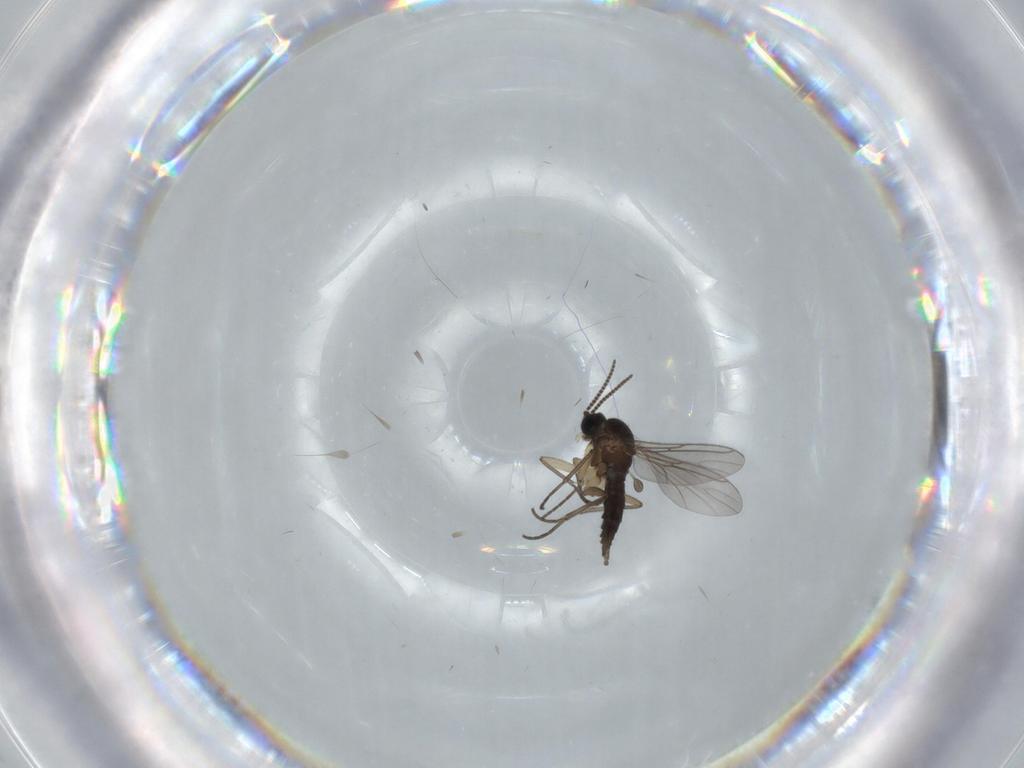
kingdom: Animalia
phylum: Arthropoda
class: Insecta
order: Diptera
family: Sciaridae
